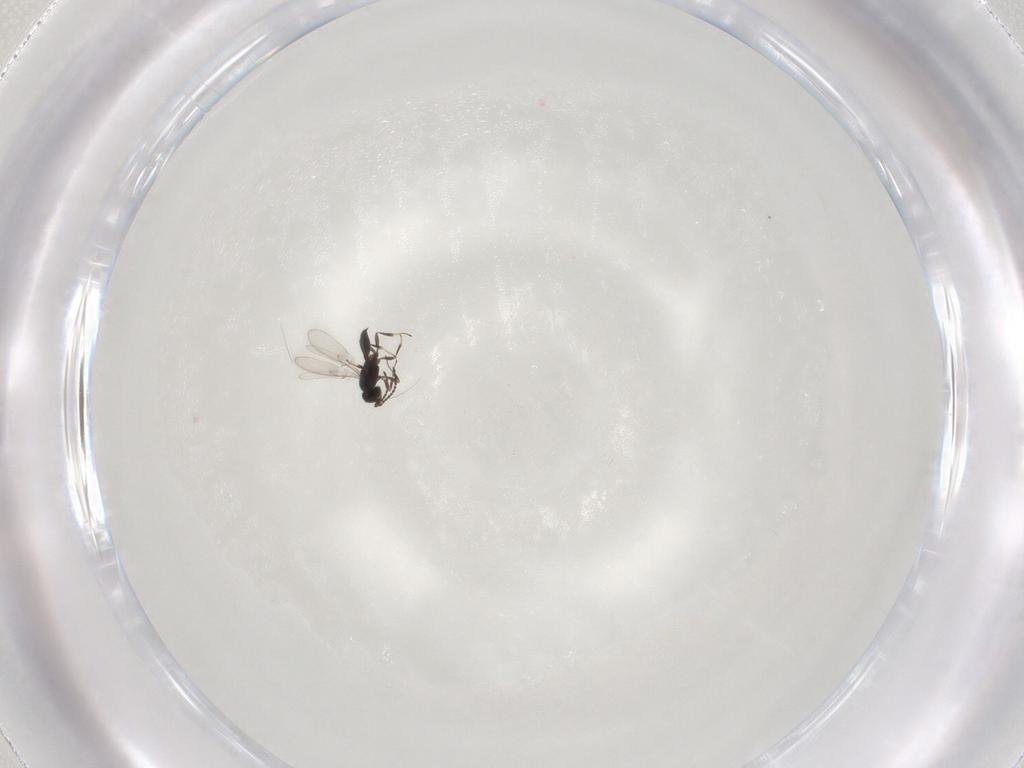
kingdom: Animalia
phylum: Arthropoda
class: Insecta
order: Hymenoptera
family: Scelionidae
